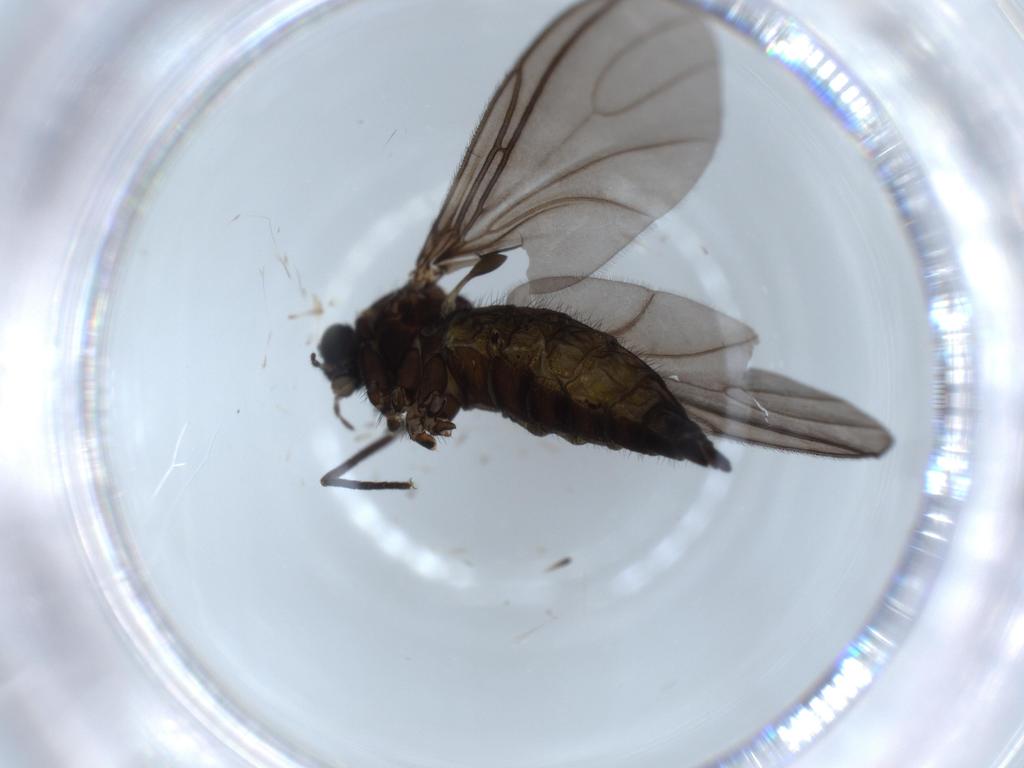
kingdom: Animalia
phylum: Arthropoda
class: Insecta
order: Diptera
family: Sciaridae
